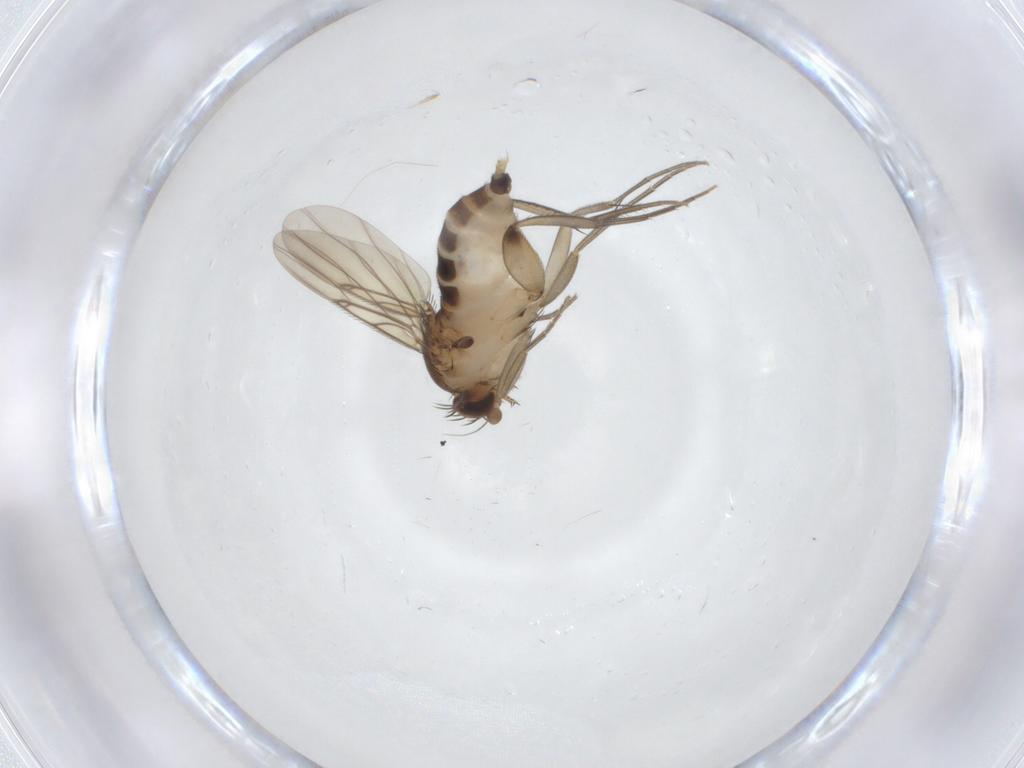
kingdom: Animalia
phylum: Arthropoda
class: Insecta
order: Diptera
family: Phoridae
